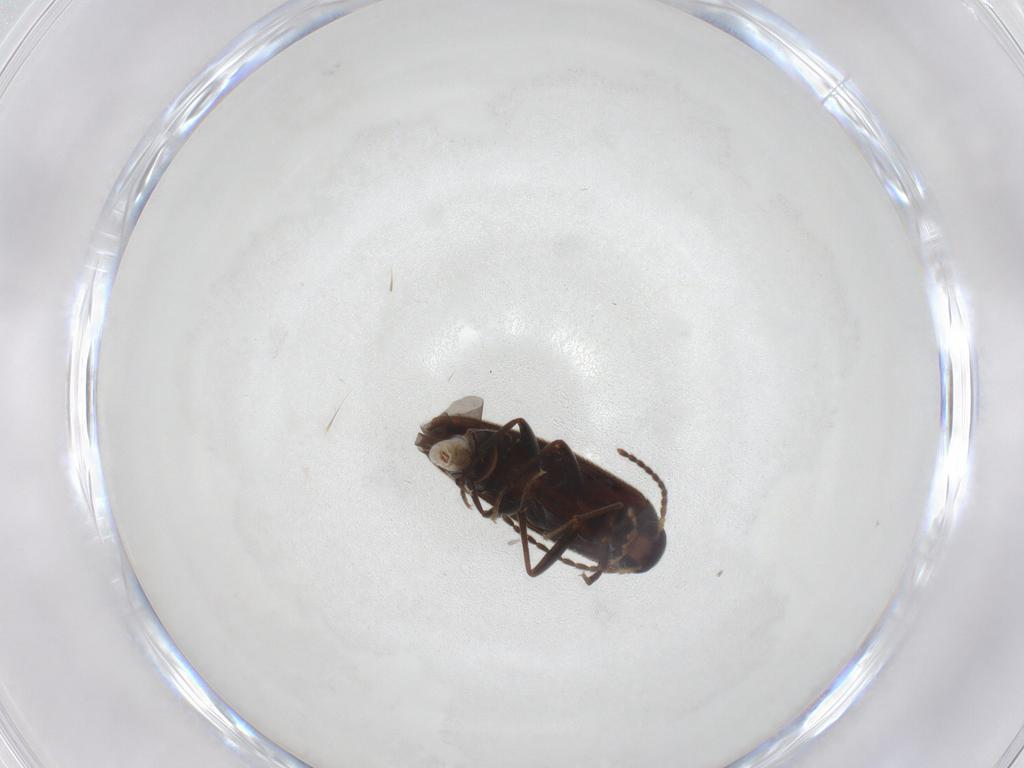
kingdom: Animalia
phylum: Arthropoda
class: Insecta
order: Coleoptera
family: Melandryidae
